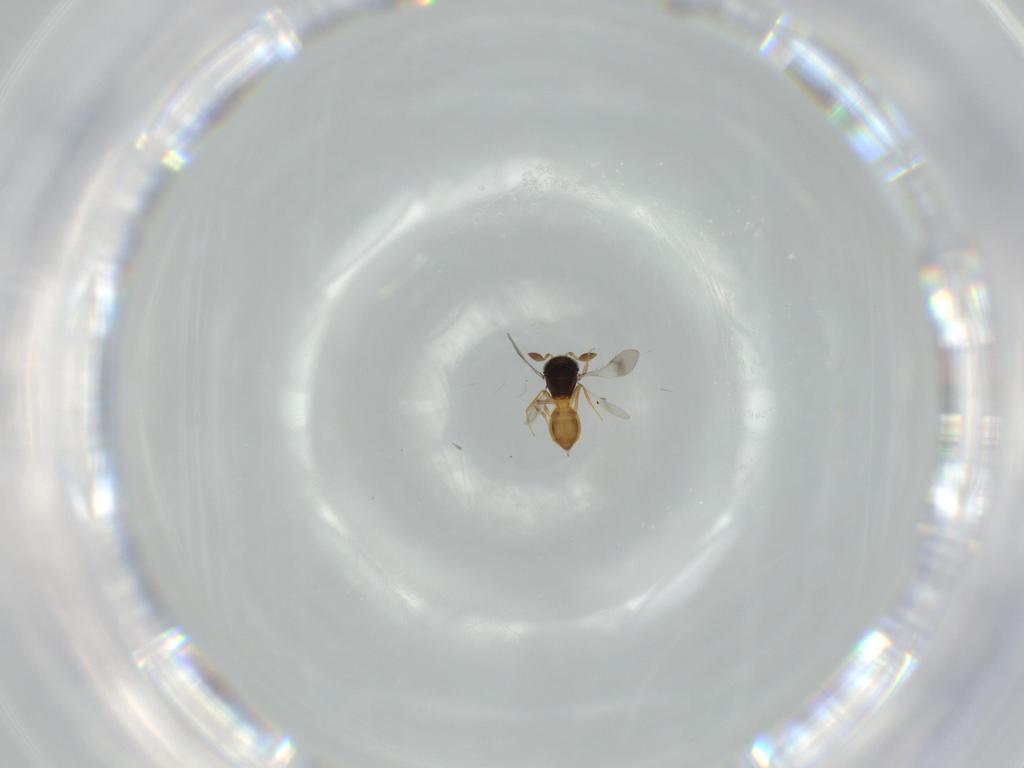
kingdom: Animalia
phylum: Arthropoda
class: Insecta
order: Hymenoptera
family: Scelionidae
